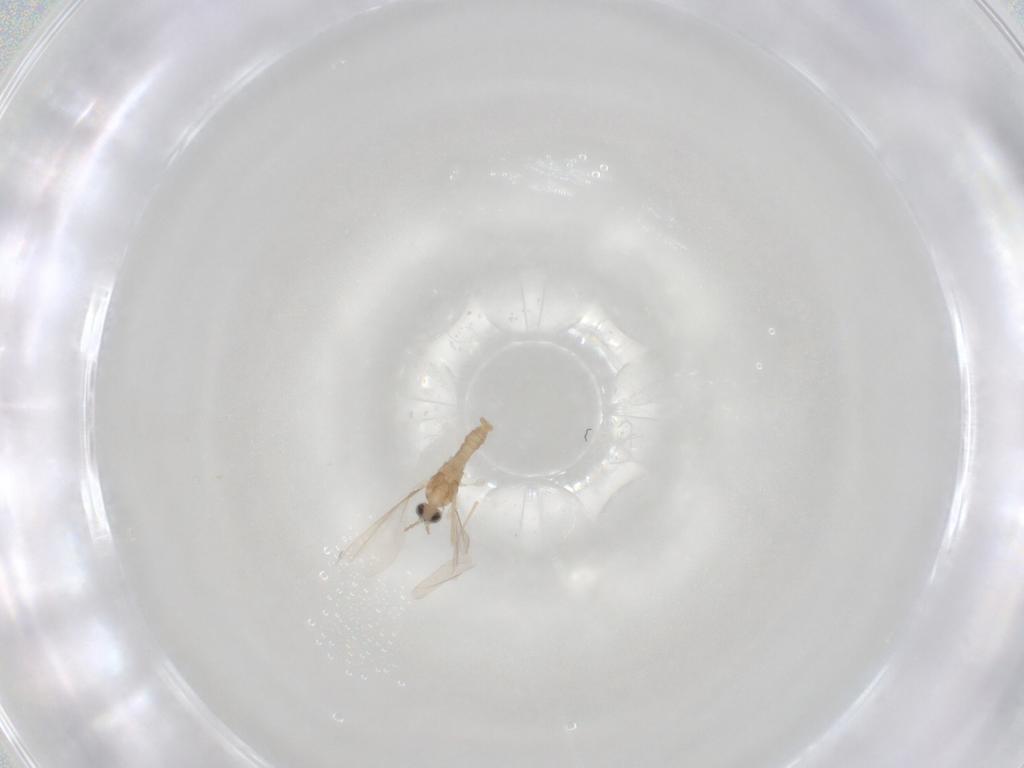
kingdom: Animalia
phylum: Arthropoda
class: Insecta
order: Diptera
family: Cecidomyiidae
